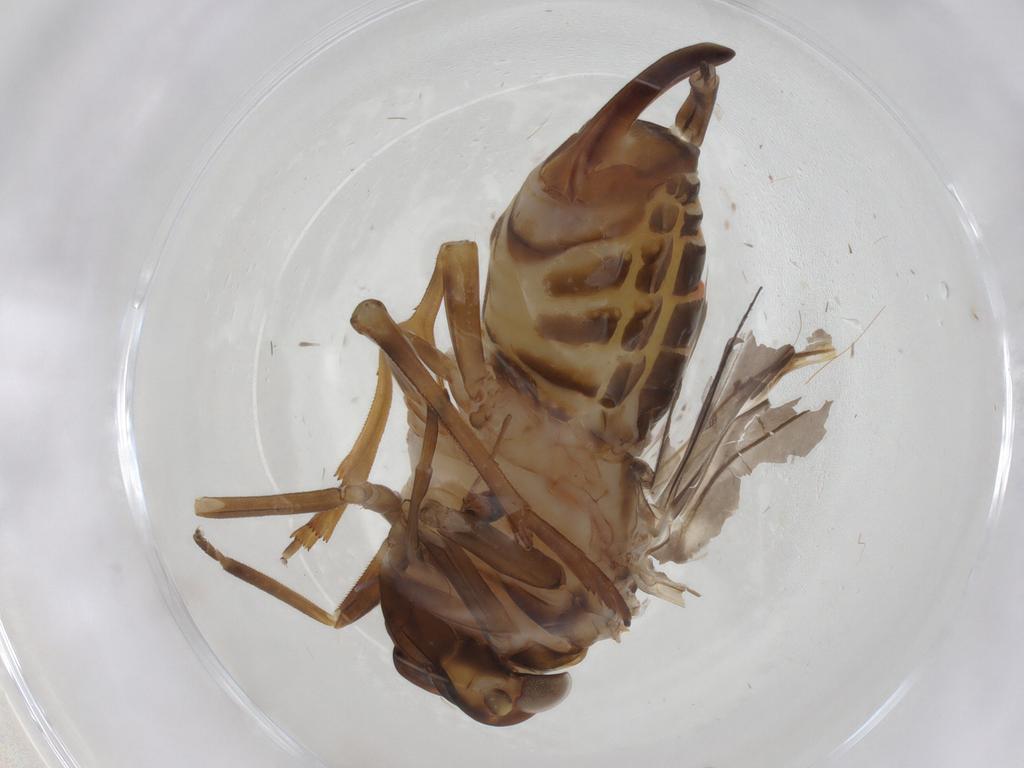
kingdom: Animalia
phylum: Arthropoda
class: Insecta
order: Hemiptera
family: Cixiidae
